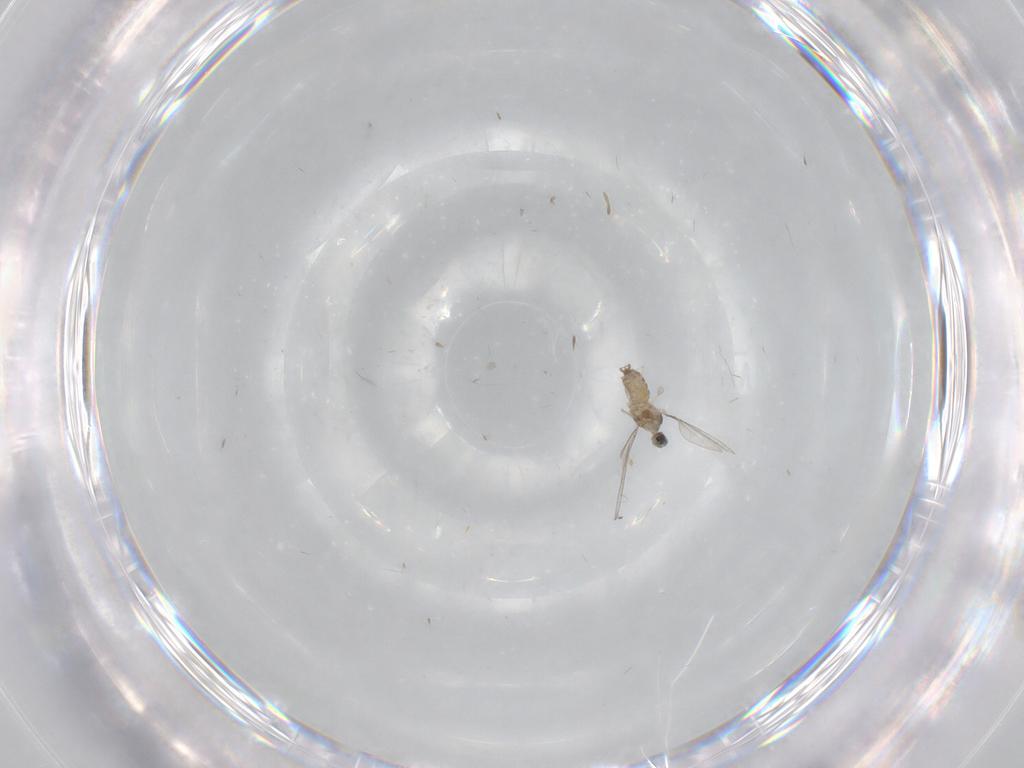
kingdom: Animalia
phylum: Arthropoda
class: Insecta
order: Diptera
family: Cecidomyiidae
